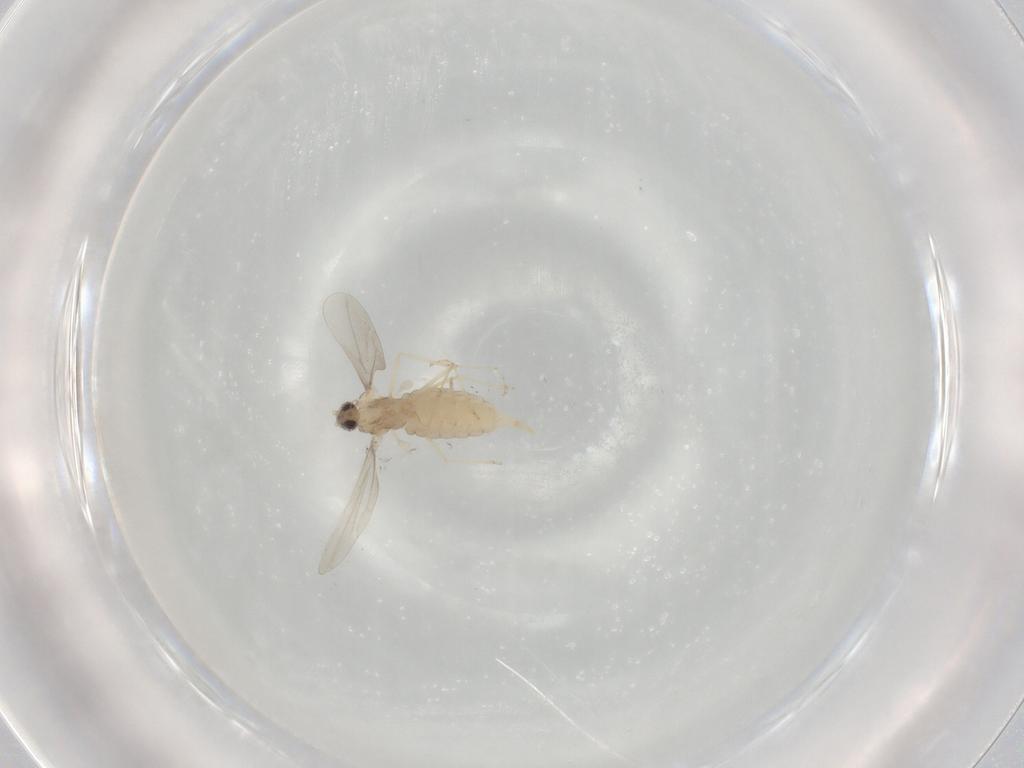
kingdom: Animalia
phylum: Arthropoda
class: Insecta
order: Diptera
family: Cecidomyiidae
